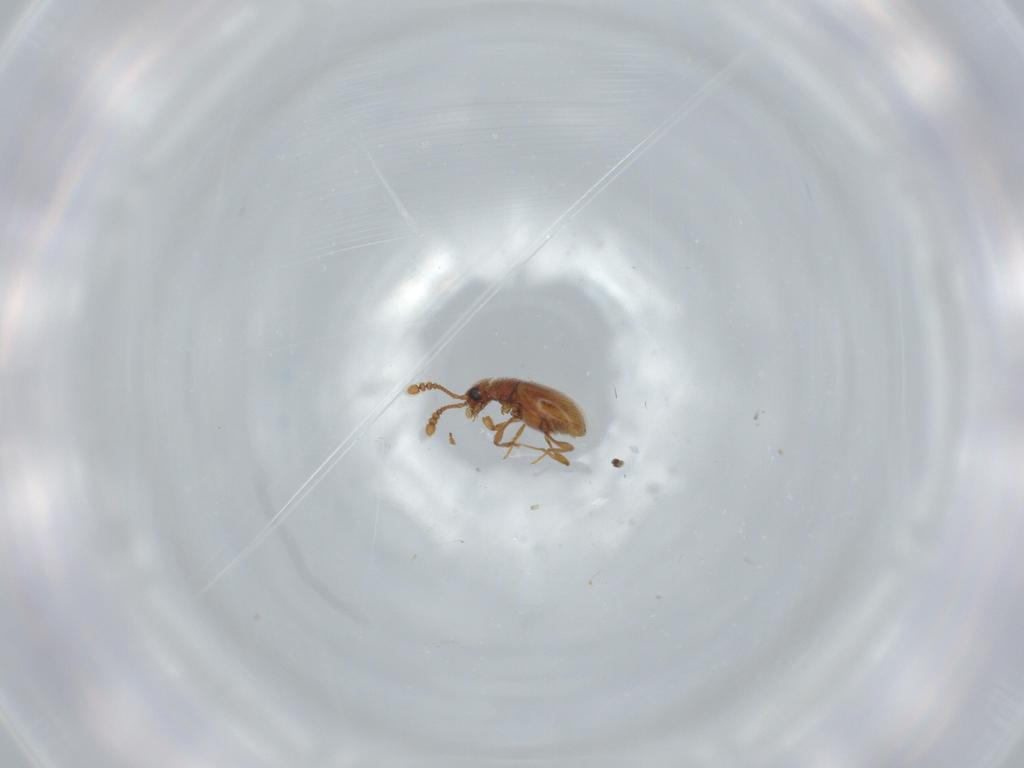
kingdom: Animalia
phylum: Arthropoda
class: Insecta
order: Coleoptera
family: Staphylinidae
